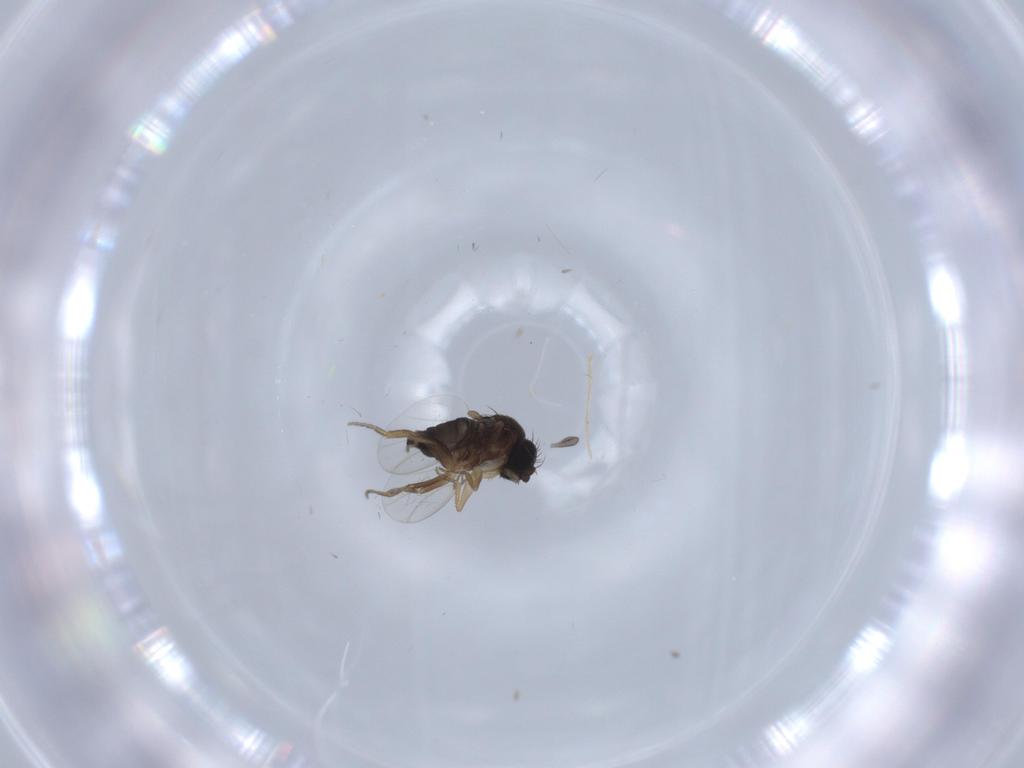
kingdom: Animalia
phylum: Arthropoda
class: Insecta
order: Diptera
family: Phoridae
